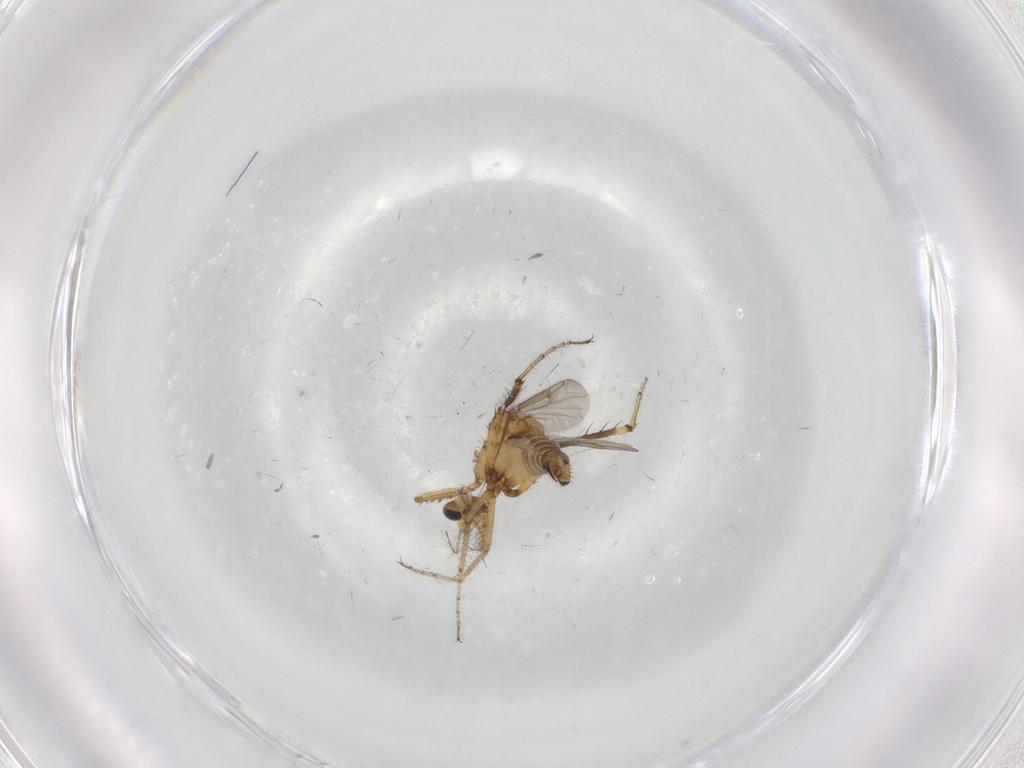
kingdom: Animalia
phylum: Arthropoda
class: Insecta
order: Diptera
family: Ceratopogonidae
